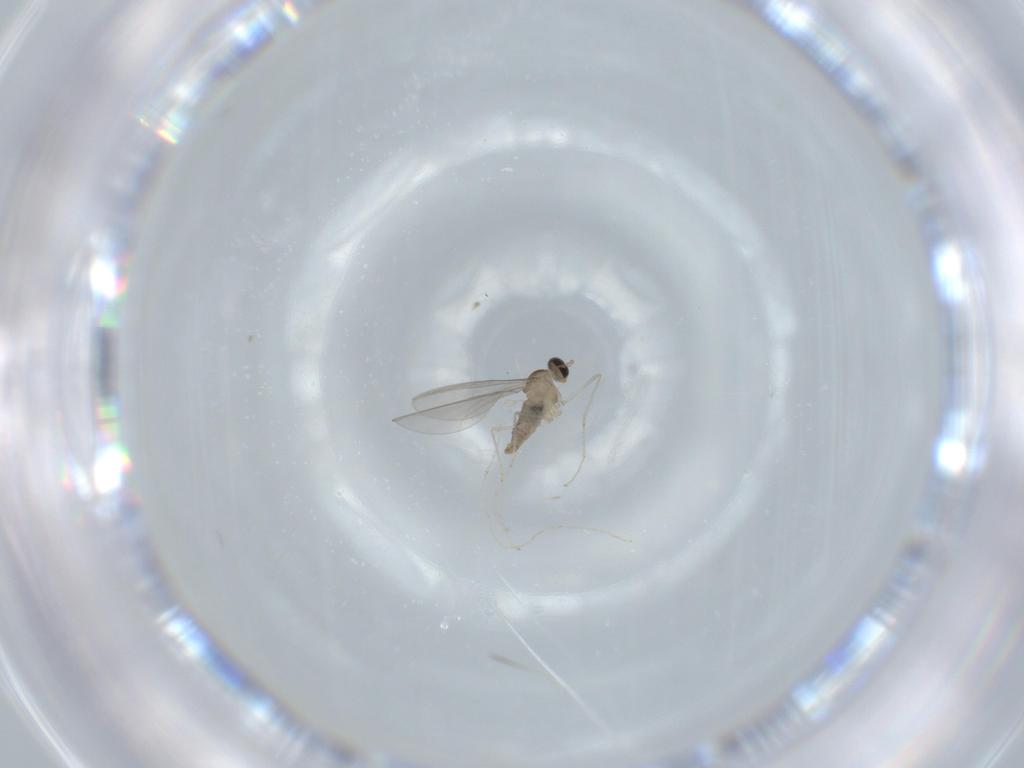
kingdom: Animalia
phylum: Arthropoda
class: Insecta
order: Diptera
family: Cecidomyiidae
